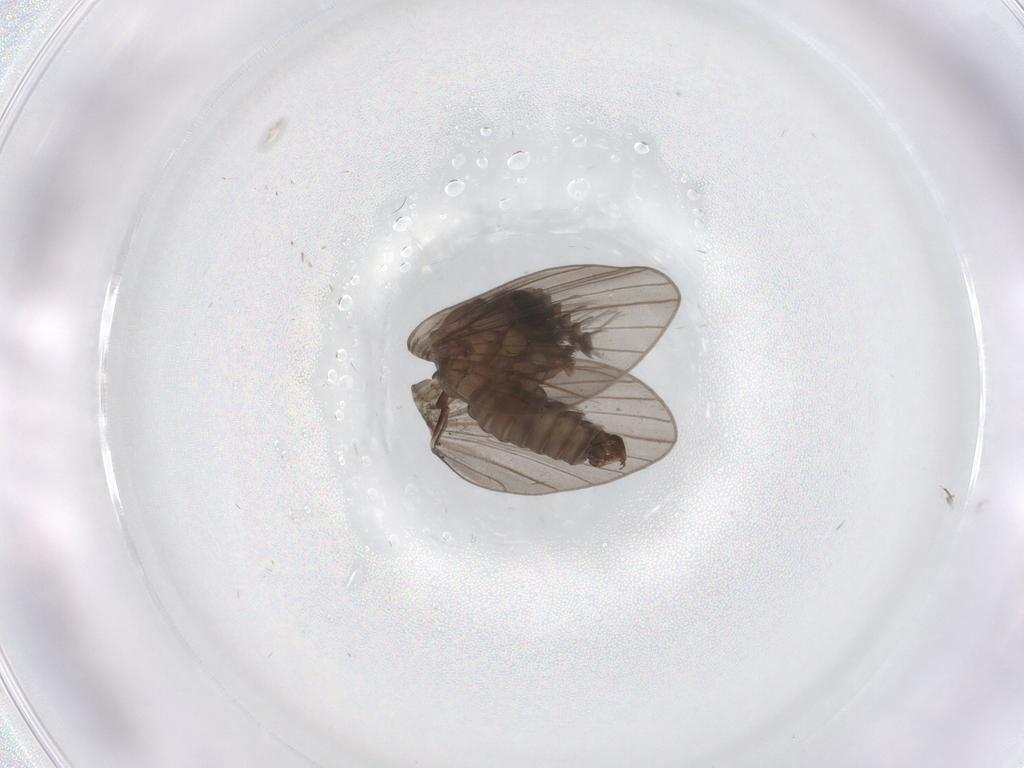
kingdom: Animalia
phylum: Arthropoda
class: Insecta
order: Diptera
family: Psychodidae
